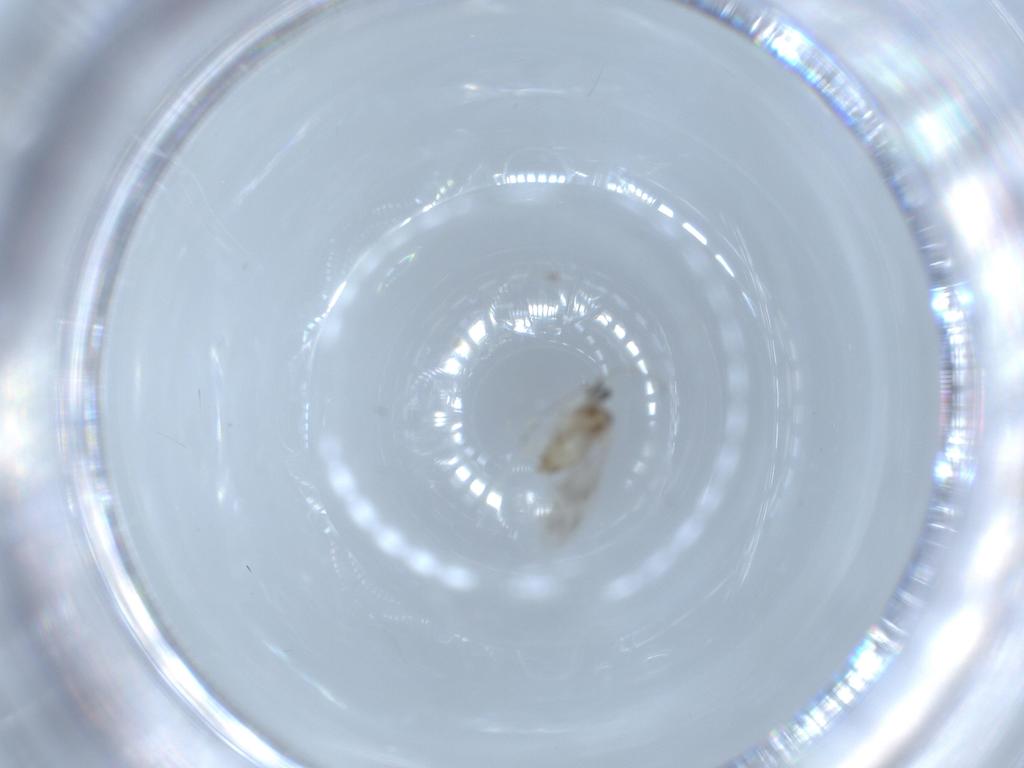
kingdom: Animalia
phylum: Arthropoda
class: Insecta
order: Diptera
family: Cecidomyiidae
